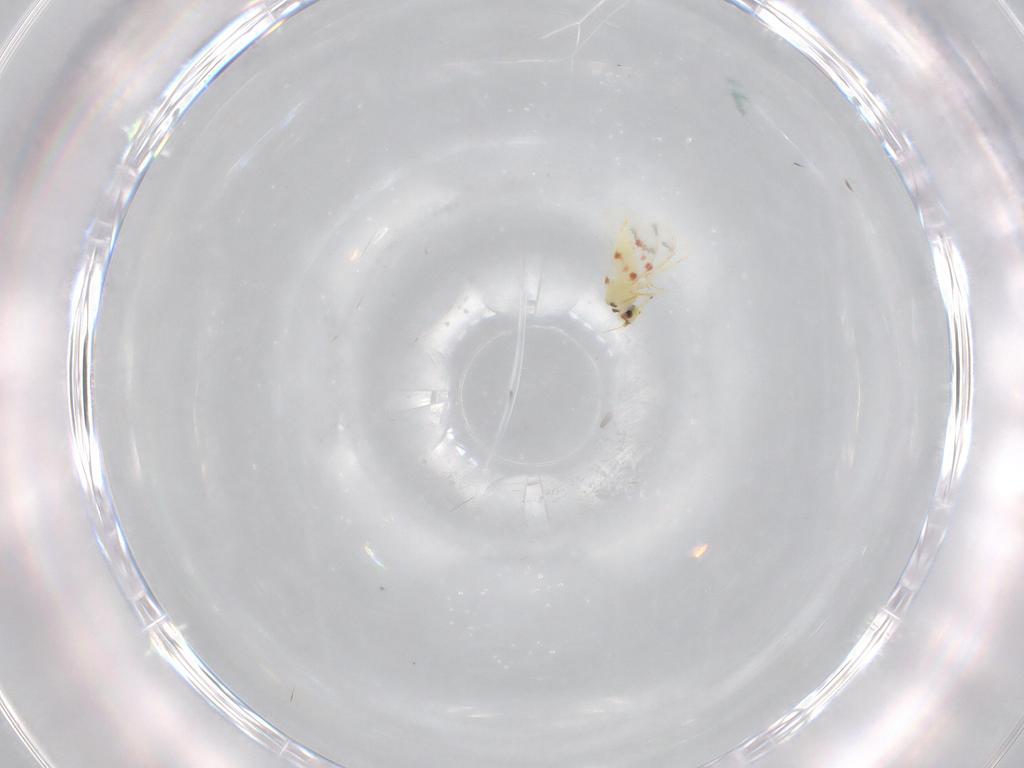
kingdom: Animalia
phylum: Arthropoda
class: Insecta
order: Hemiptera
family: Aleyrodidae
